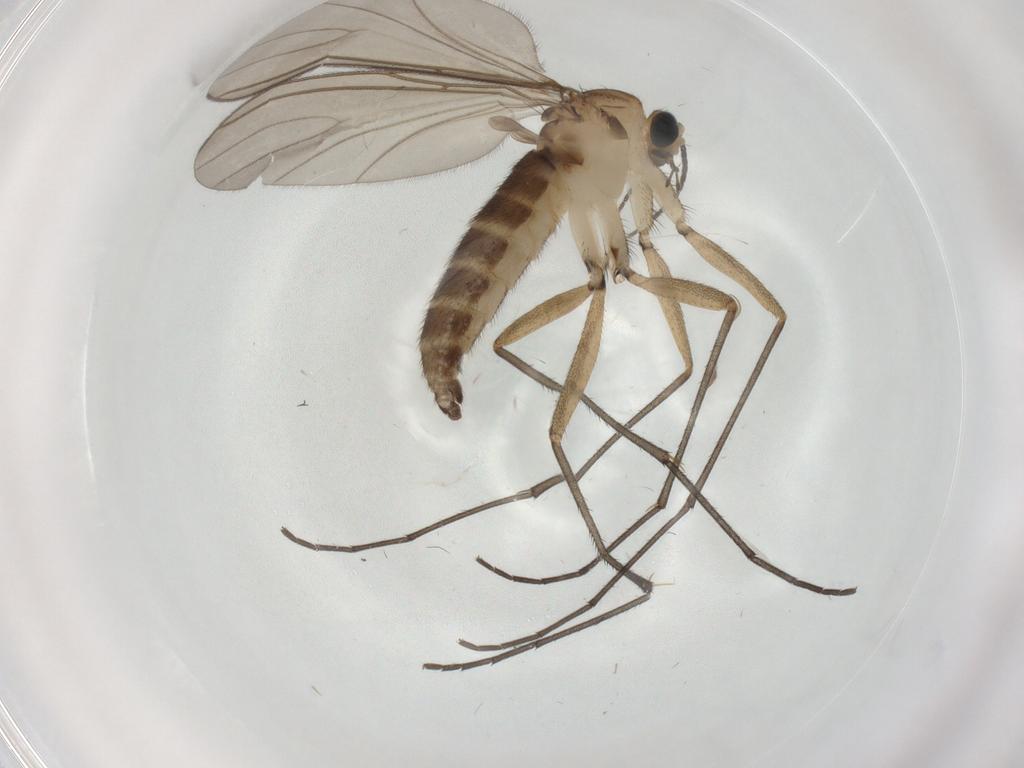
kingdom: Animalia
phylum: Arthropoda
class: Insecta
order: Diptera
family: Sciaridae
